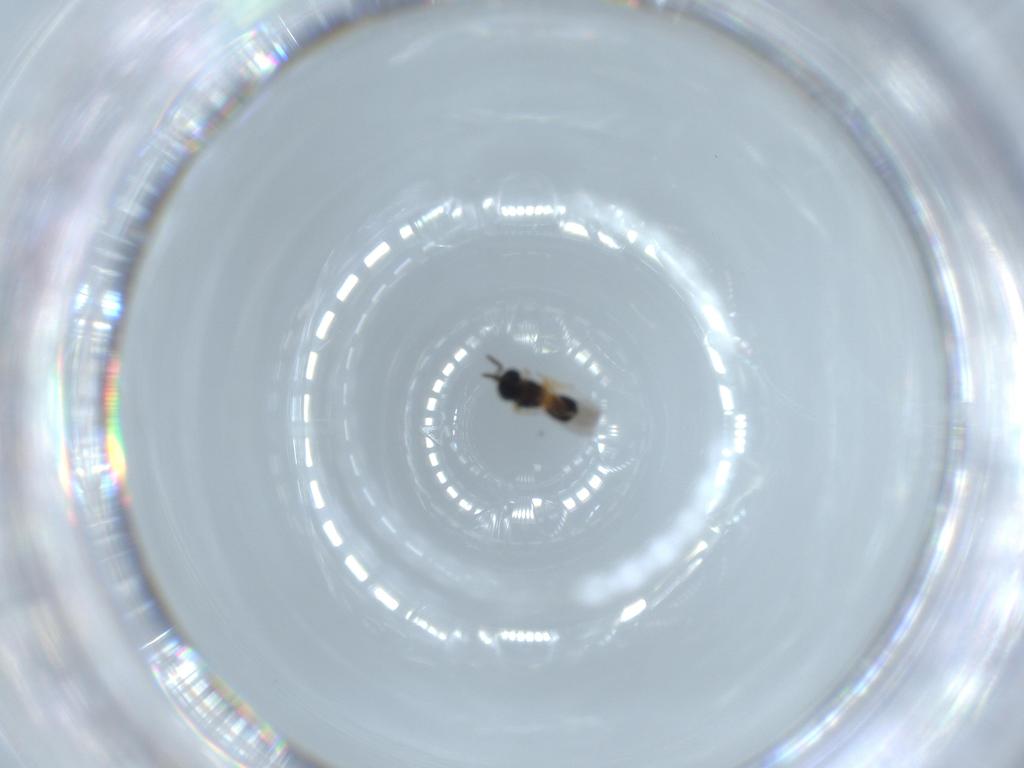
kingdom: Animalia
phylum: Arthropoda
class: Insecta
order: Hymenoptera
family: Scelionidae
